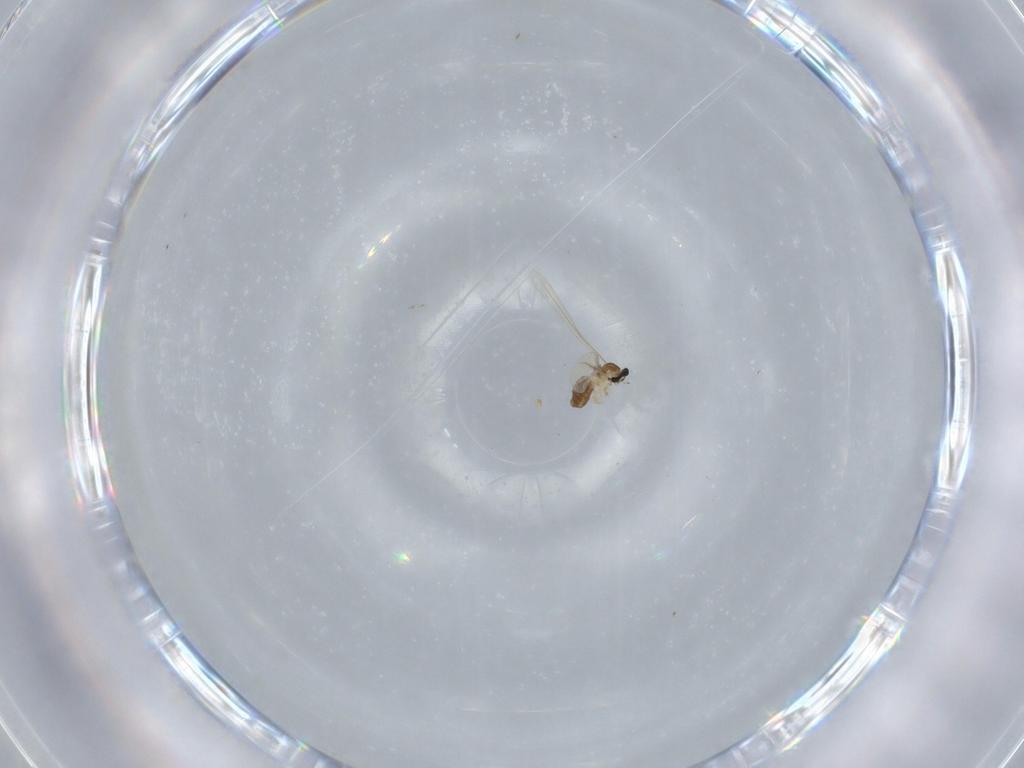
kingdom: Animalia
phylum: Arthropoda
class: Insecta
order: Diptera
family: Cecidomyiidae
